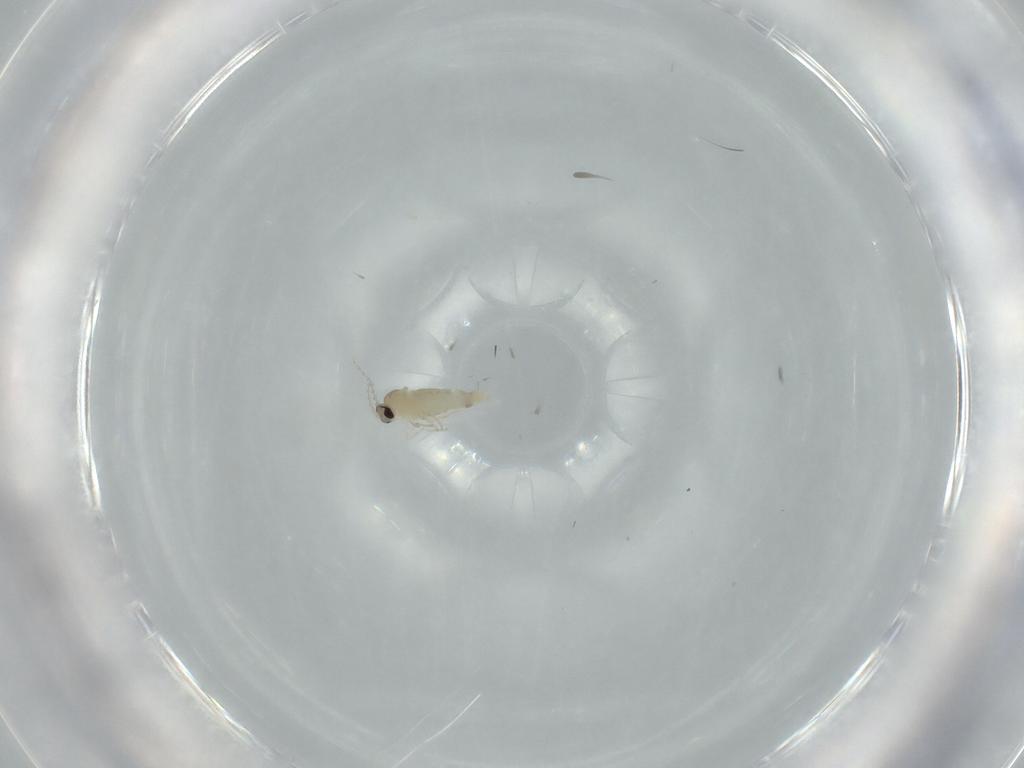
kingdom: Animalia
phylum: Arthropoda
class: Insecta
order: Diptera
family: Cecidomyiidae
